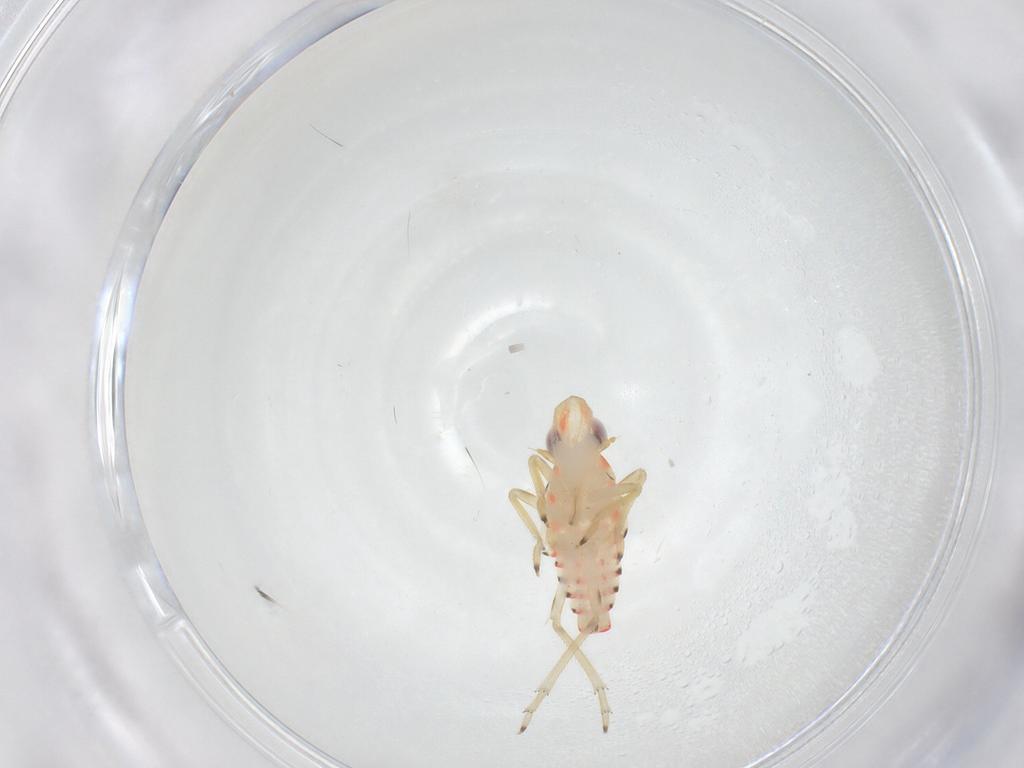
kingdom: Animalia
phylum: Arthropoda
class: Insecta
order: Hemiptera
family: Tropiduchidae
